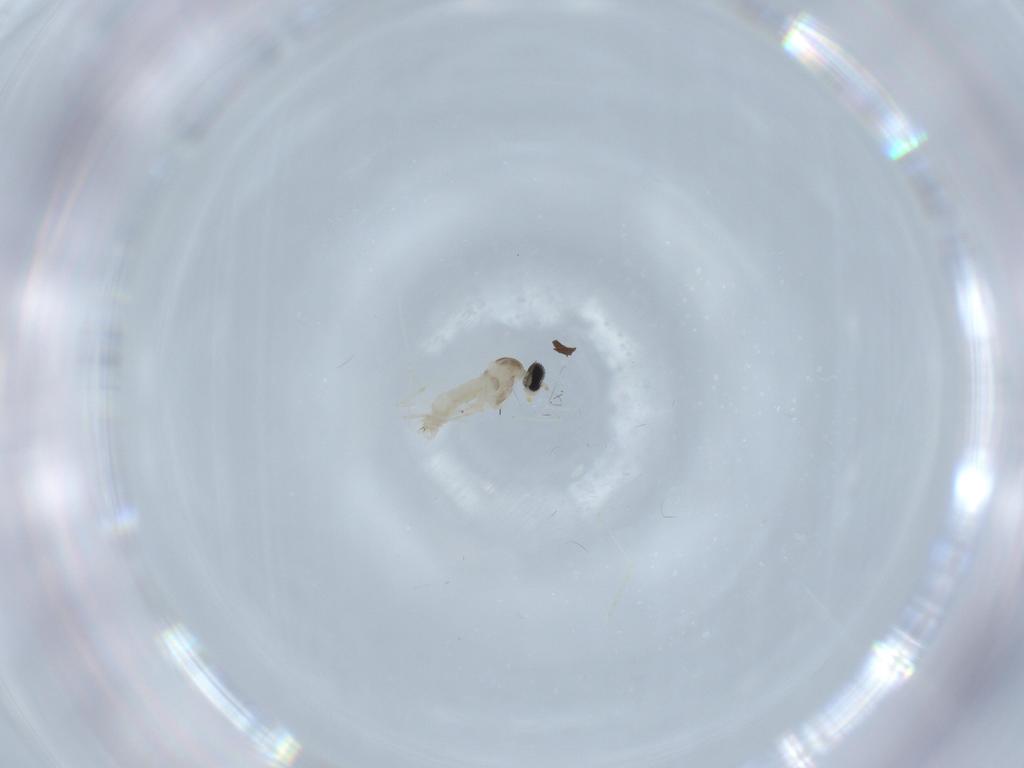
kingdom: Animalia
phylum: Arthropoda
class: Insecta
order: Diptera
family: Cecidomyiidae
